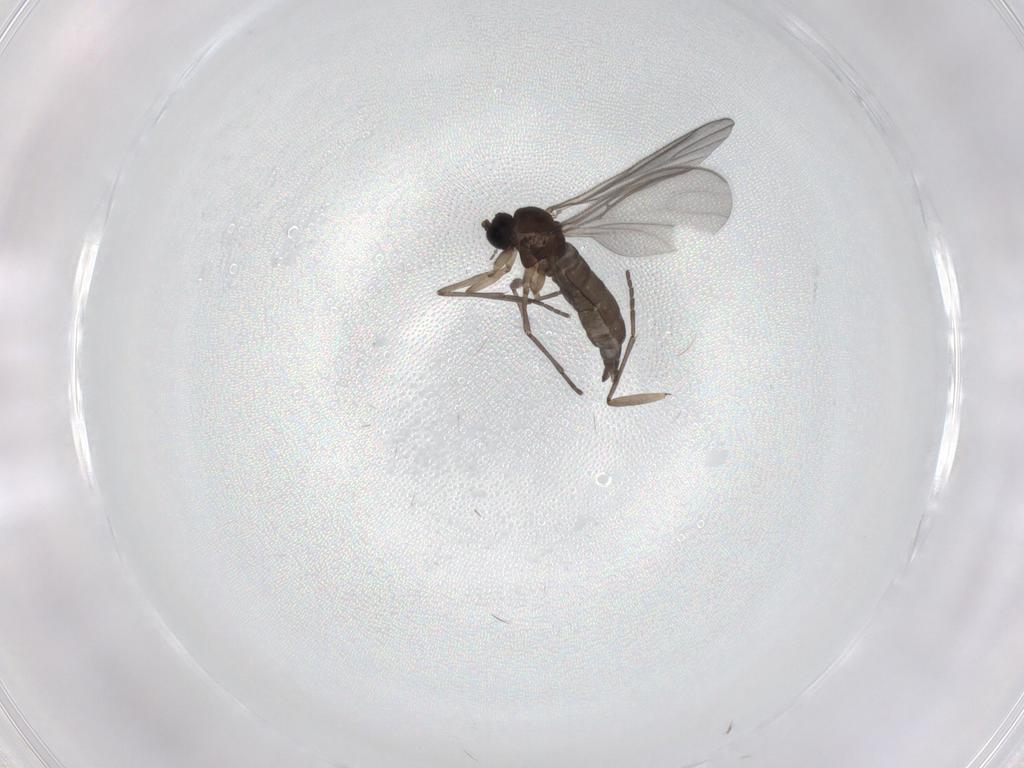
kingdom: Animalia
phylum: Arthropoda
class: Insecta
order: Diptera
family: Sciaridae
